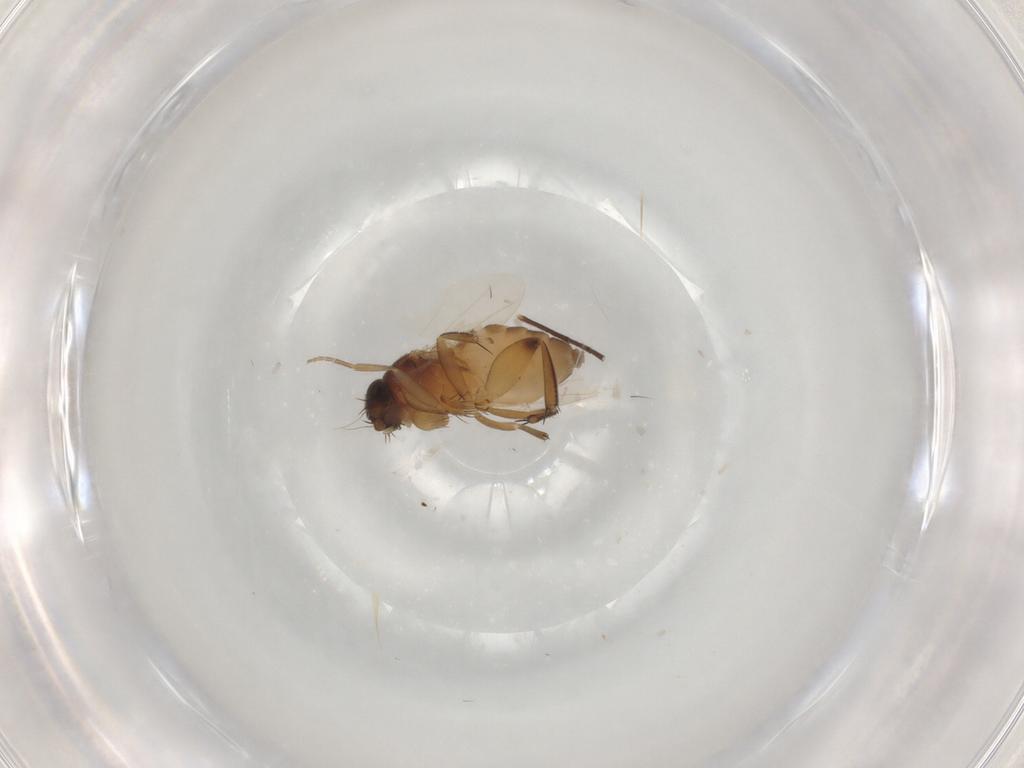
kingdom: Animalia
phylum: Arthropoda
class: Insecta
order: Diptera
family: Phoridae
